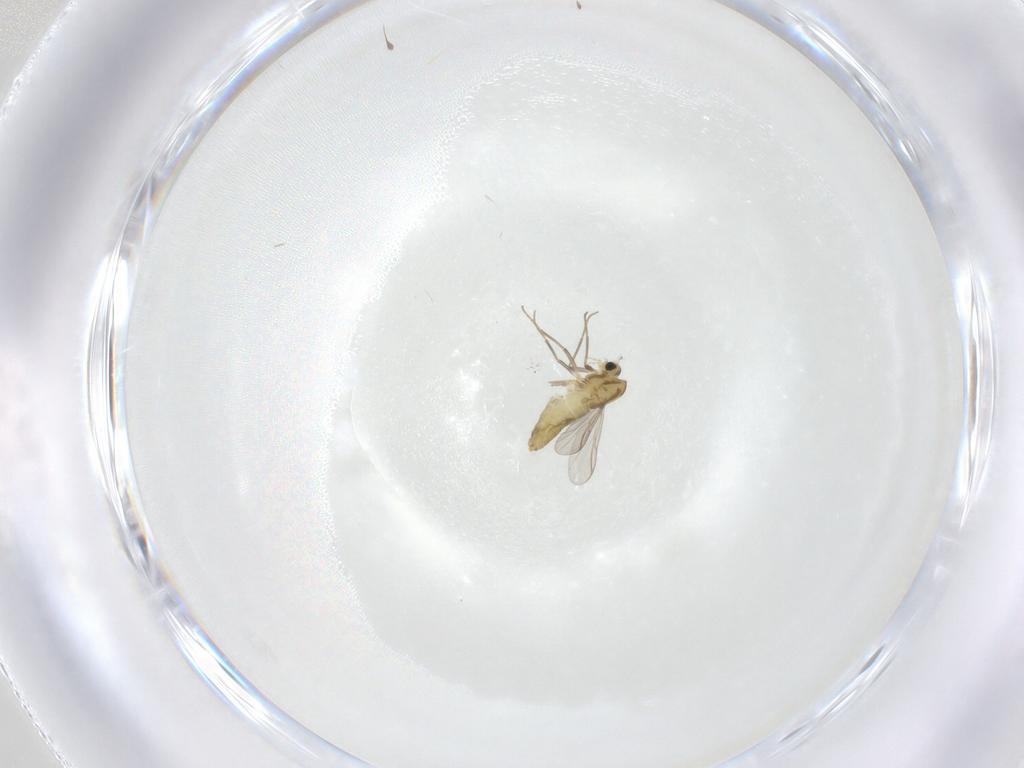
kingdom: Animalia
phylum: Arthropoda
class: Insecta
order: Diptera
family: Chironomidae
